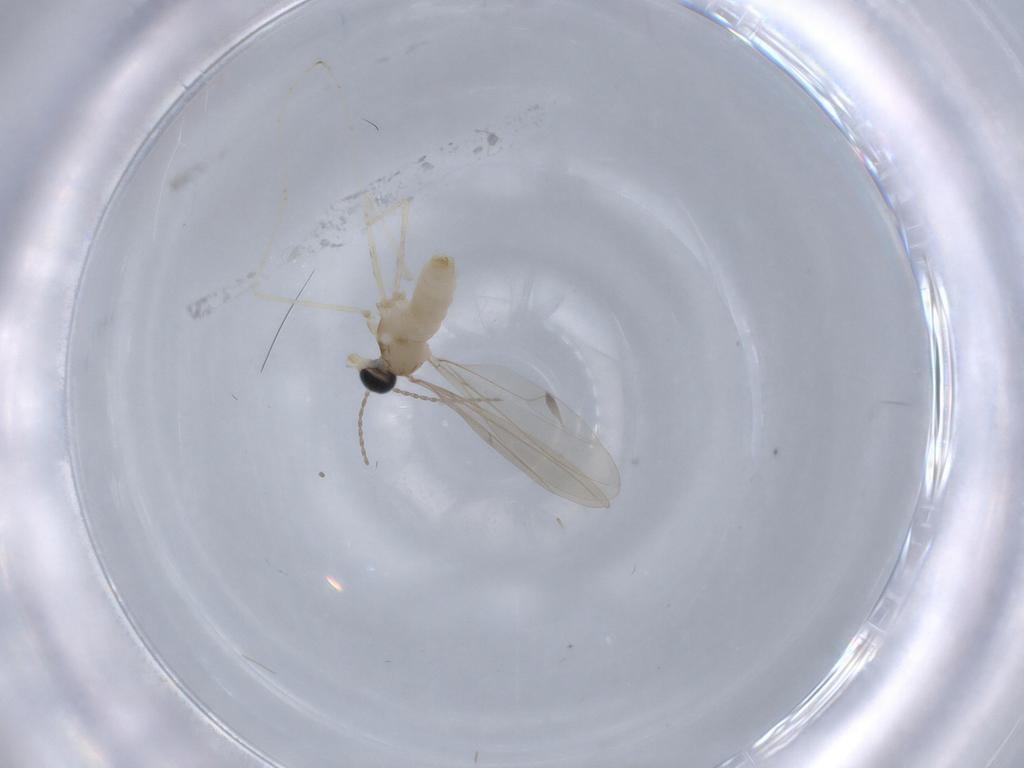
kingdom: Animalia
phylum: Arthropoda
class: Insecta
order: Diptera
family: Cecidomyiidae
